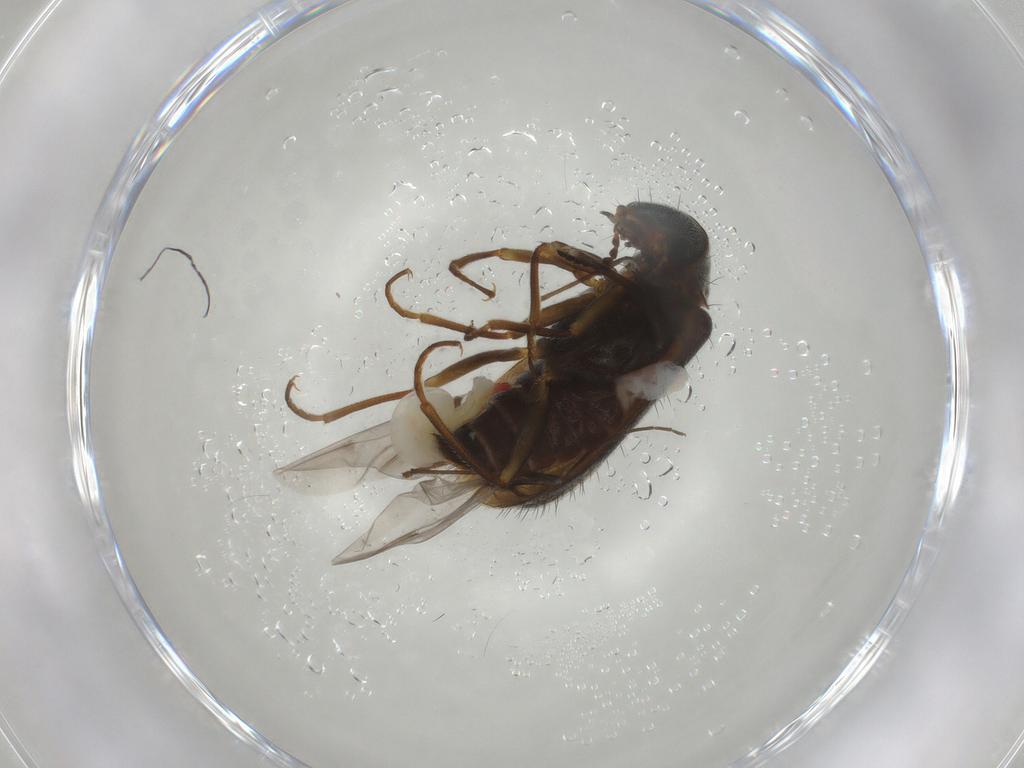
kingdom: Animalia
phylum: Arthropoda
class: Insecta
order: Coleoptera
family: Melyridae
